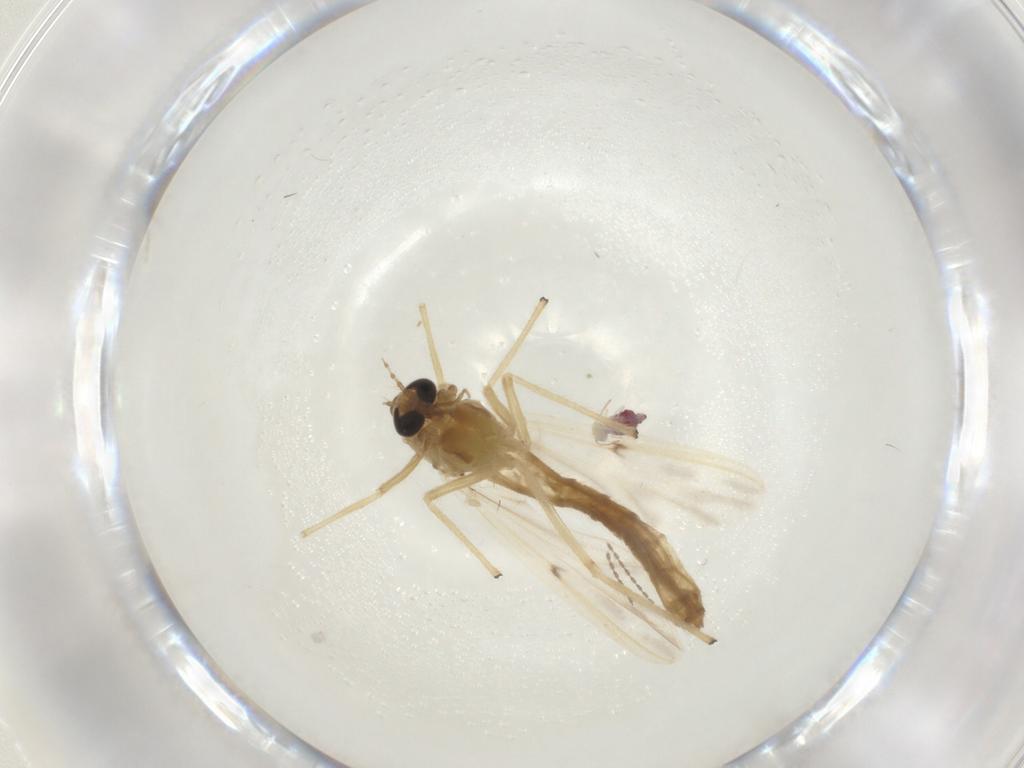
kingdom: Animalia
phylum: Arthropoda
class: Insecta
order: Diptera
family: Chironomidae
